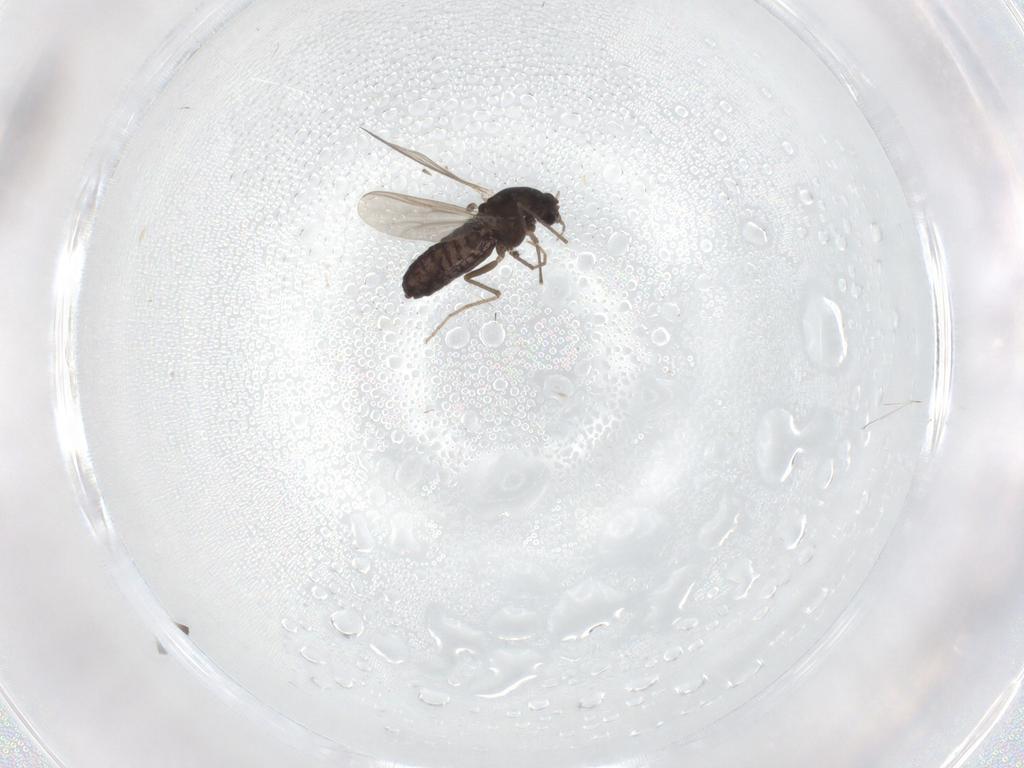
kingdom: Animalia
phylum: Arthropoda
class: Insecta
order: Diptera
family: Chironomidae
